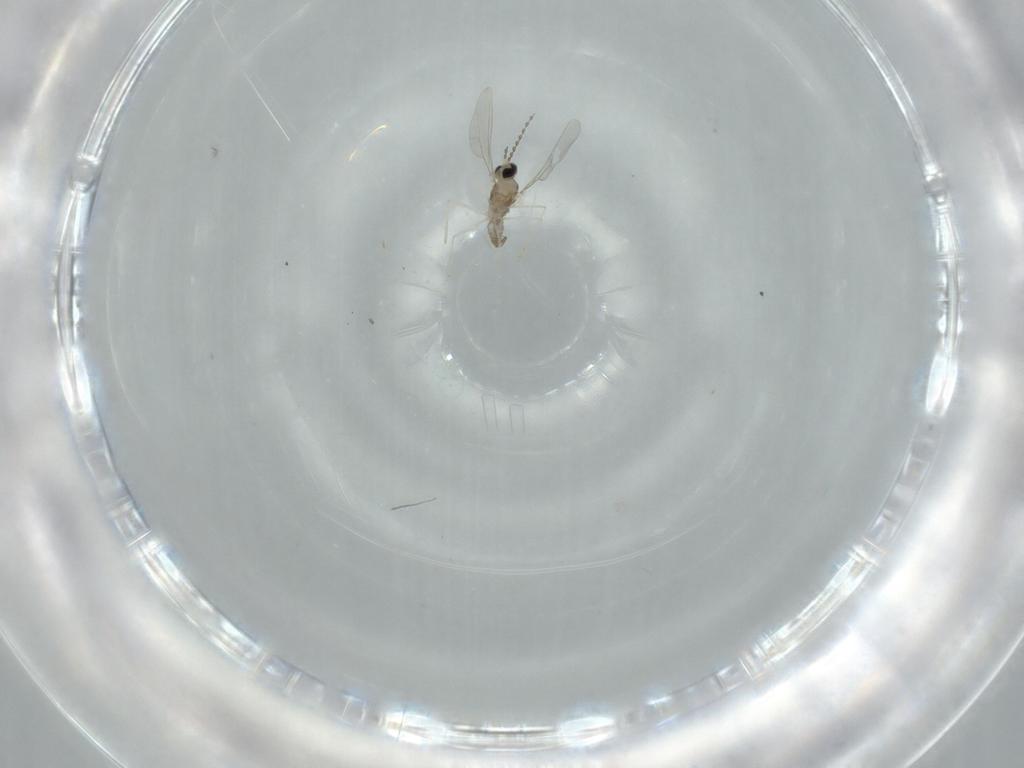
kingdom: Animalia
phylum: Arthropoda
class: Insecta
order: Diptera
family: Cecidomyiidae
